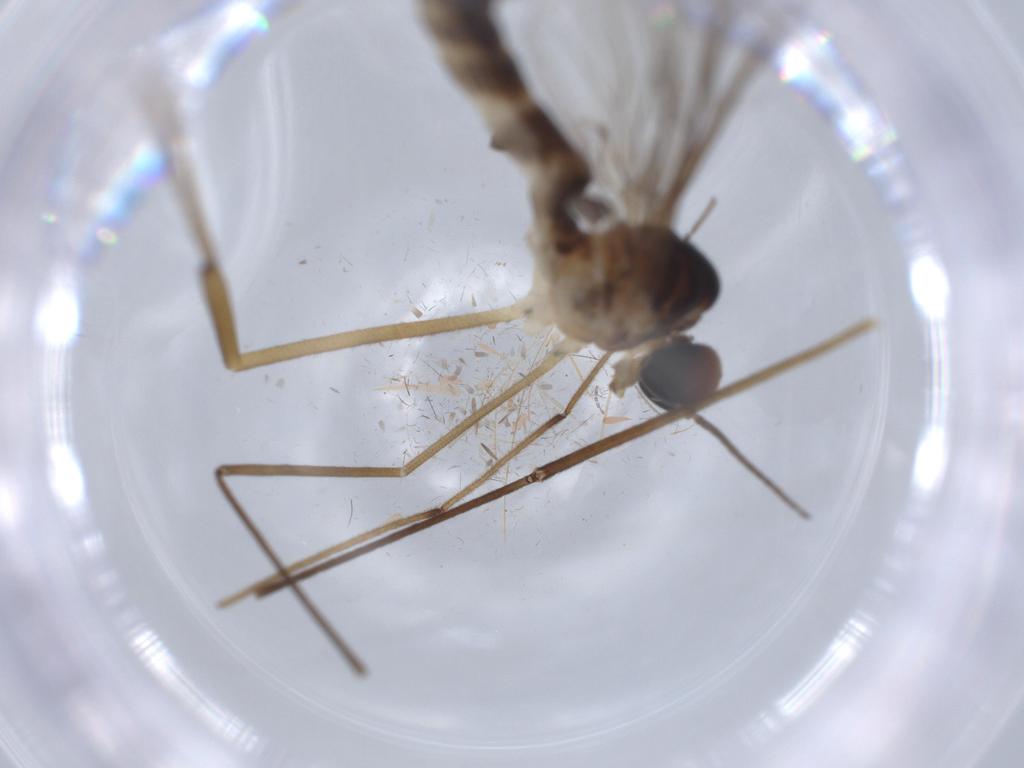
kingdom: Animalia
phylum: Arthropoda
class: Insecta
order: Diptera
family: Blephariceridae
